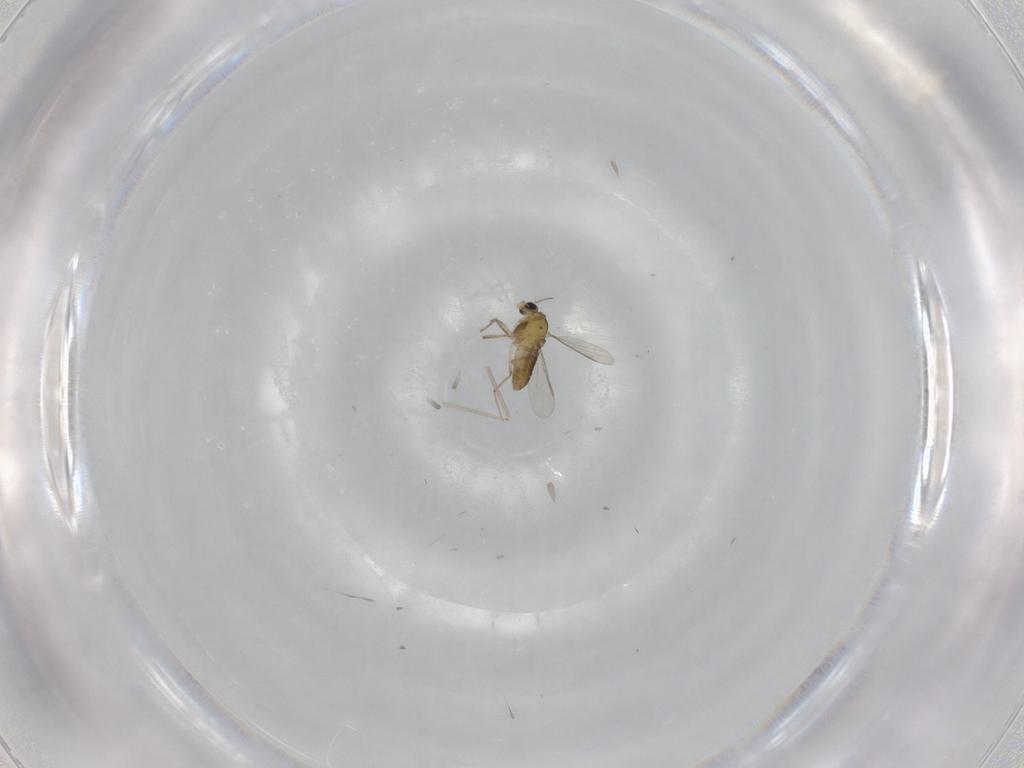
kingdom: Animalia
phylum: Arthropoda
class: Insecta
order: Diptera
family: Chironomidae
